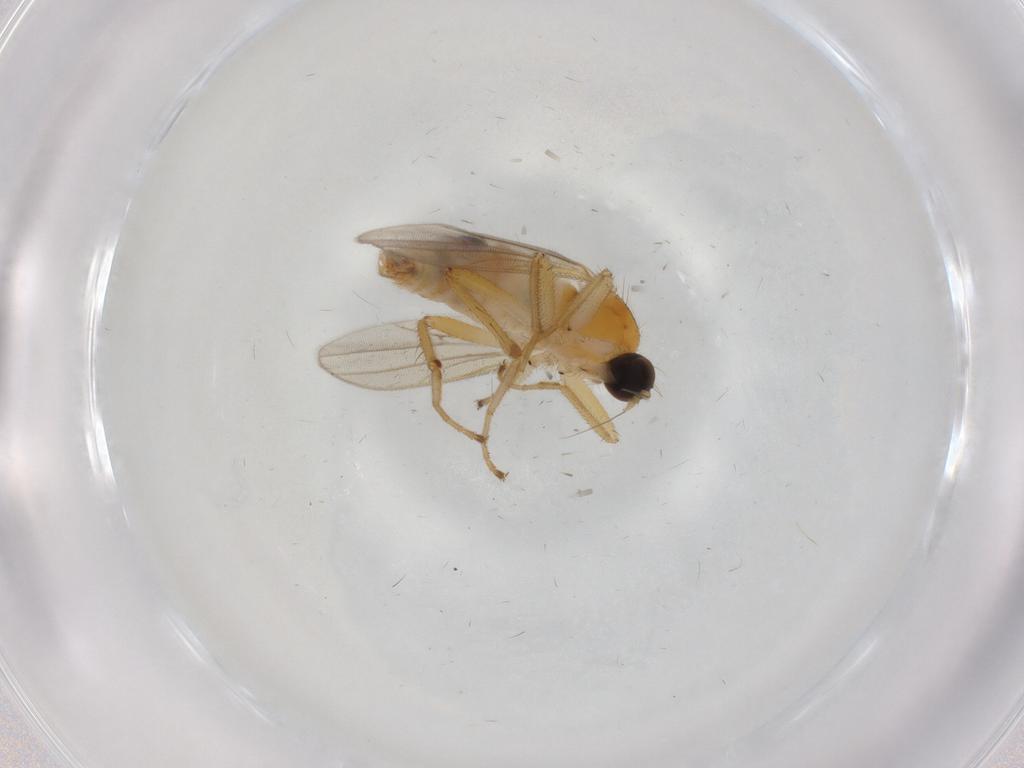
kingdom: Animalia
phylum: Arthropoda
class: Insecta
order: Diptera
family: Hybotidae
